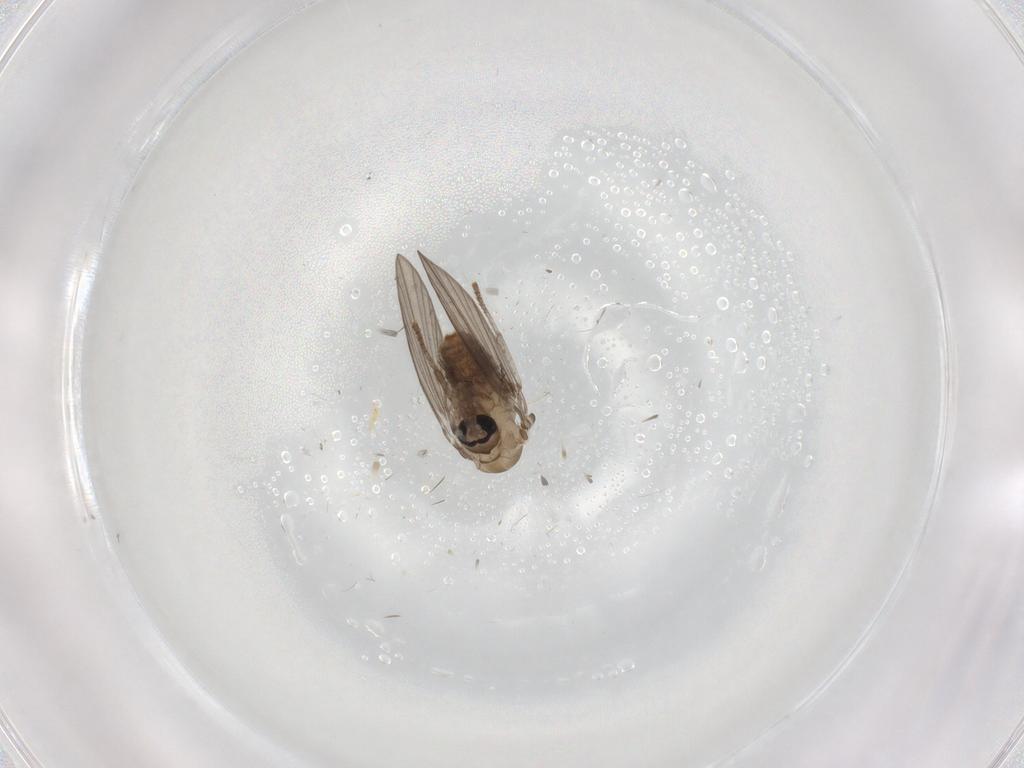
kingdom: Animalia
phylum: Arthropoda
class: Insecta
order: Diptera
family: Psychodidae
